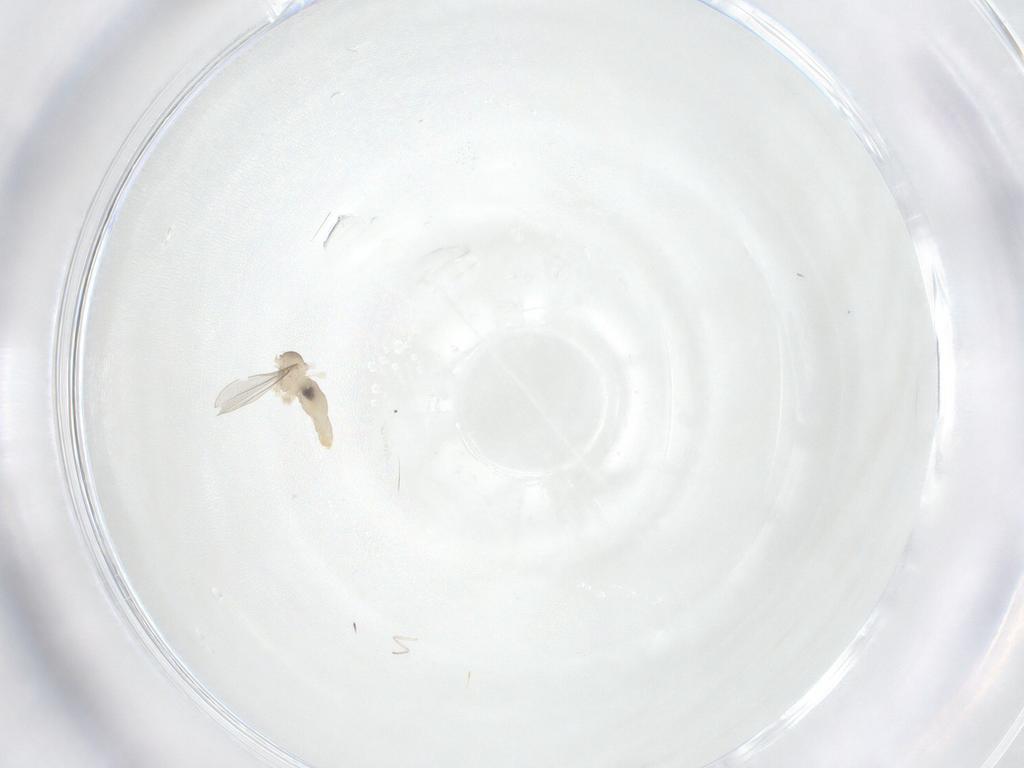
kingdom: Animalia
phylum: Arthropoda
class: Insecta
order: Diptera
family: Cecidomyiidae
